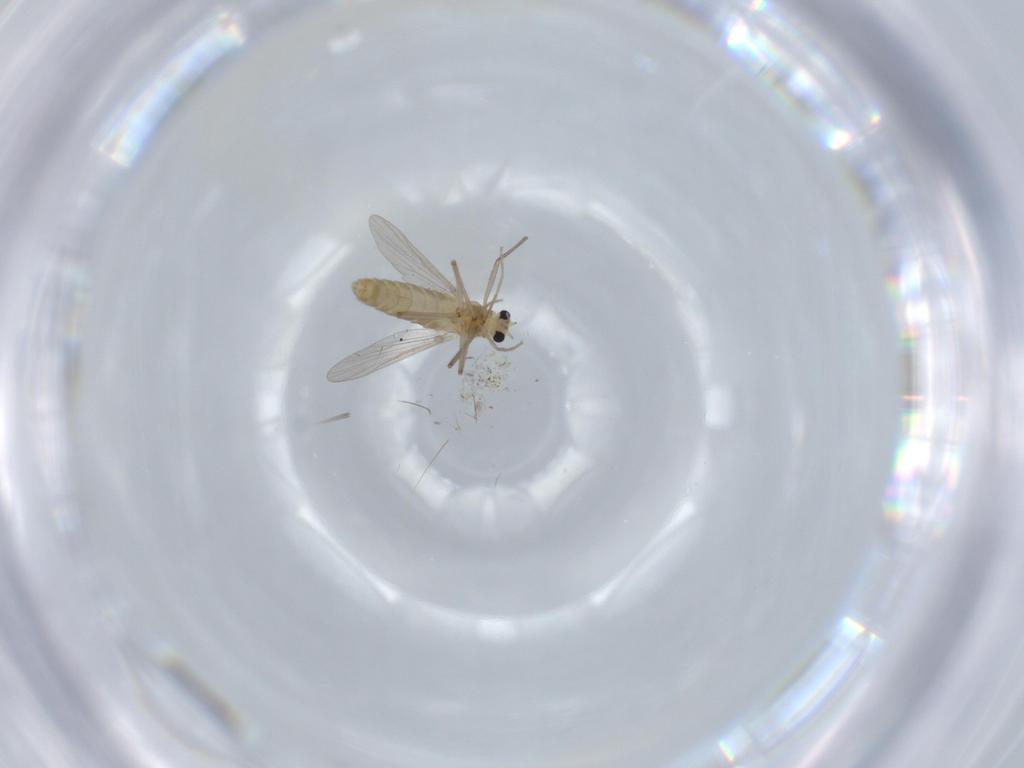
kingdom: Animalia
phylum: Arthropoda
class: Insecta
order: Diptera
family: Chironomidae
